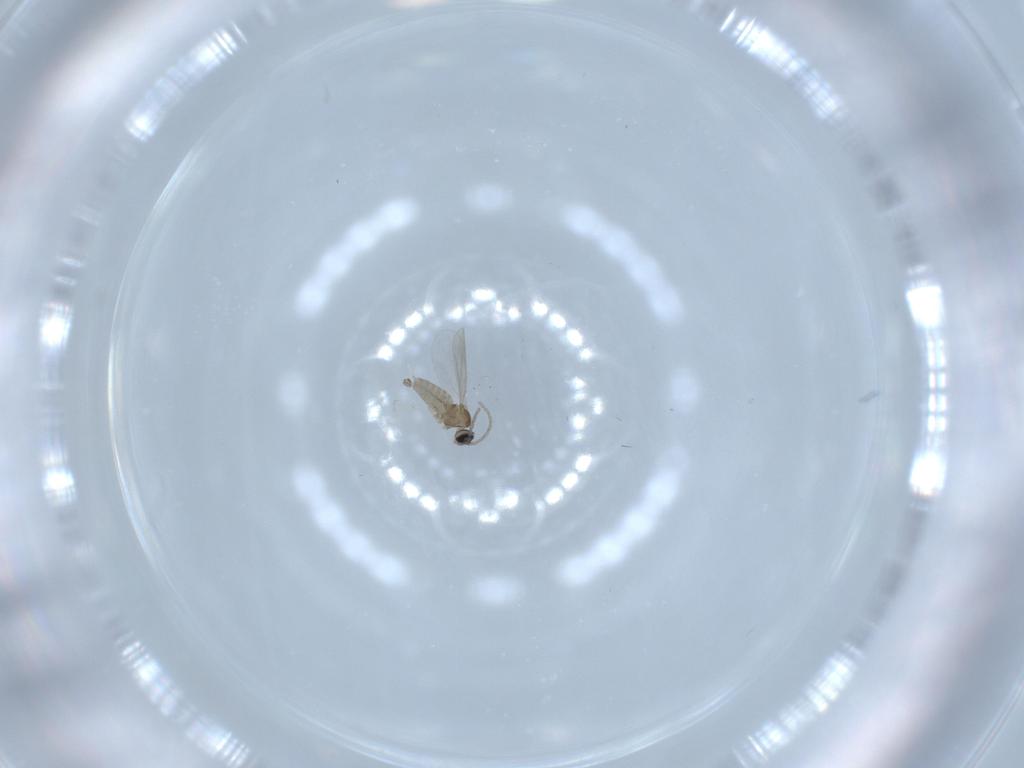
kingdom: Animalia
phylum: Arthropoda
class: Insecta
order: Diptera
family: Cecidomyiidae
